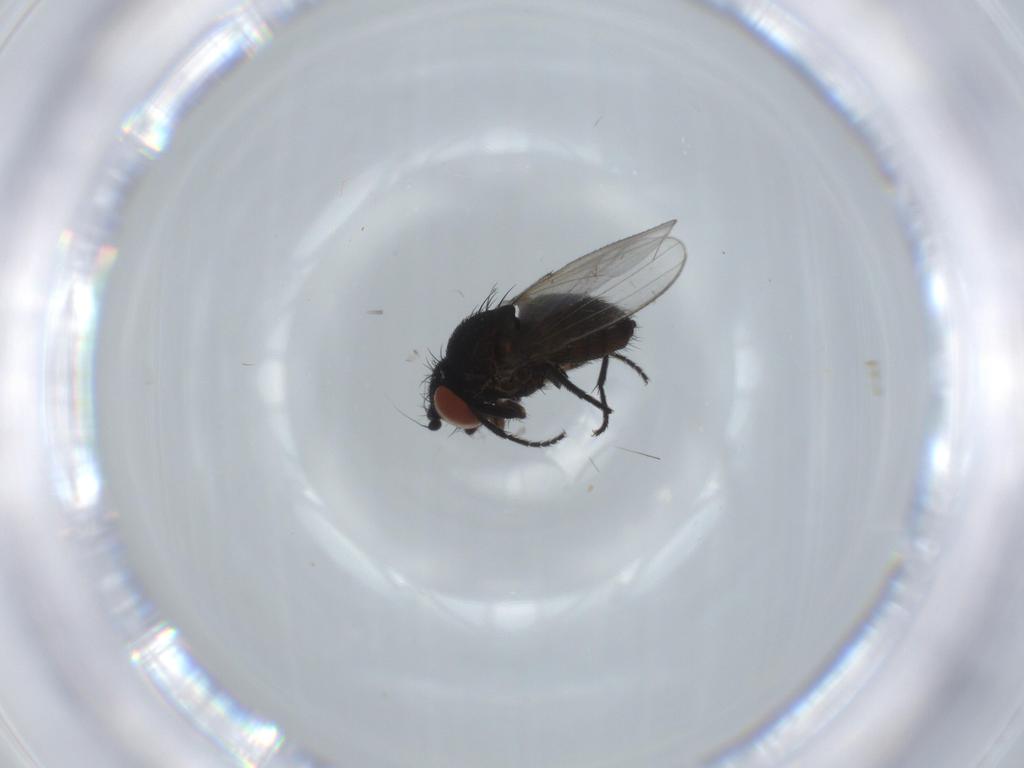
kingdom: Animalia
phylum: Arthropoda
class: Insecta
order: Diptera
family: Milichiidae
